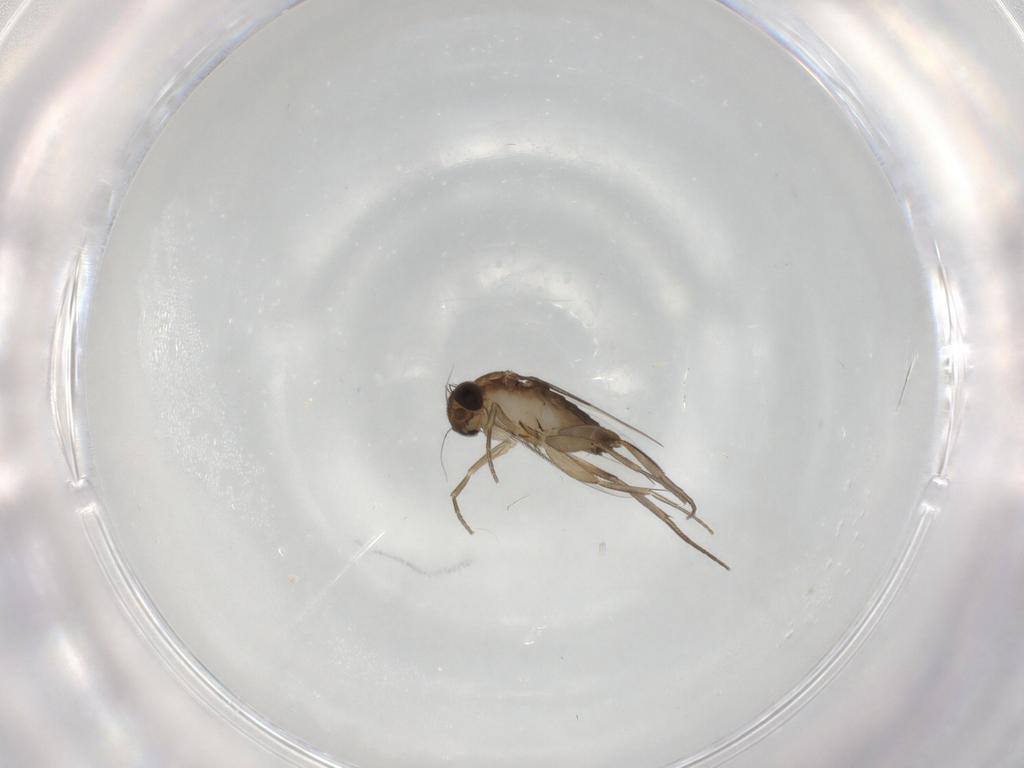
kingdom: Animalia
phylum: Arthropoda
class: Insecta
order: Diptera
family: Phoridae
